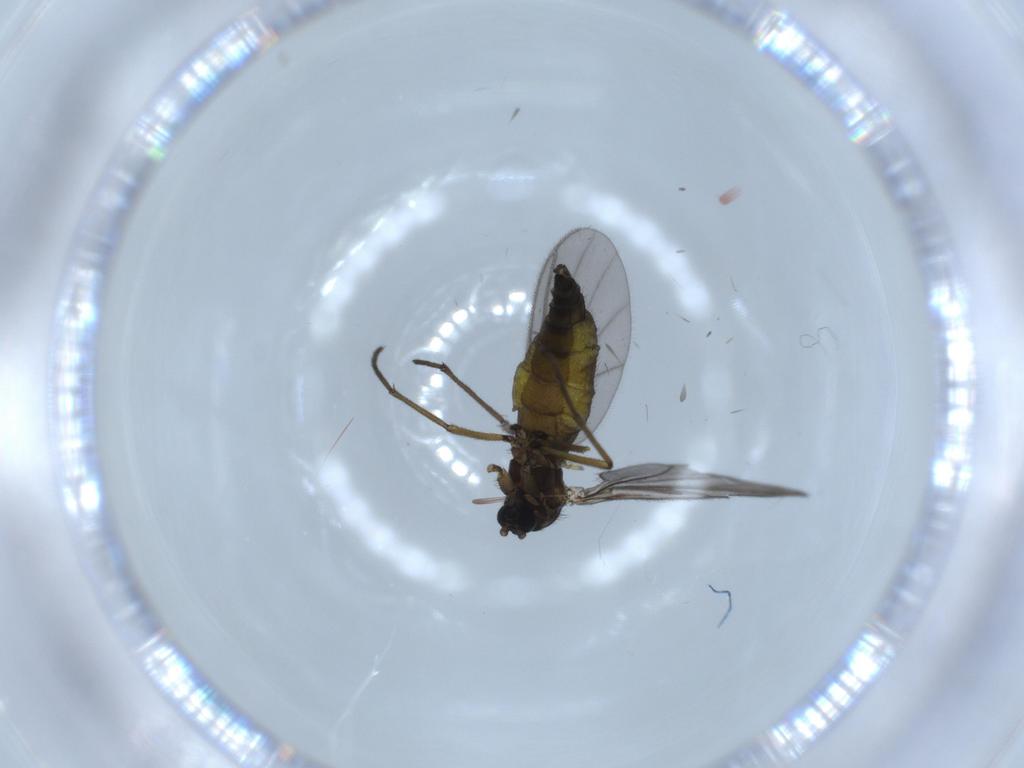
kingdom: Animalia
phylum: Arthropoda
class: Insecta
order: Diptera
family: Sciaridae
